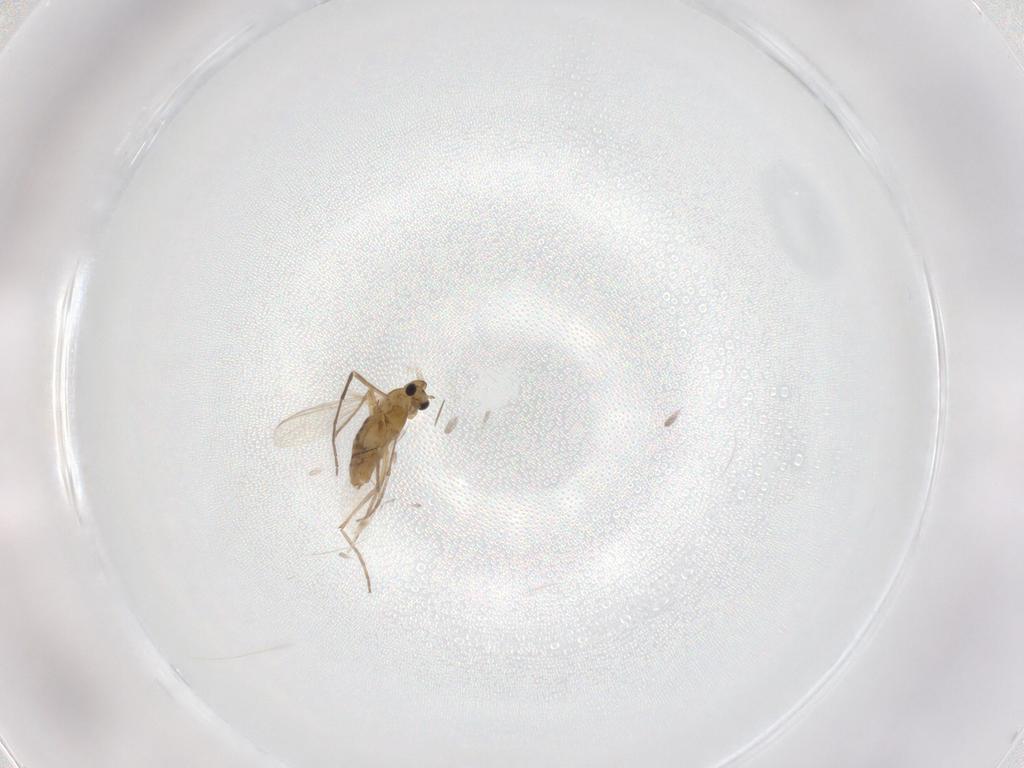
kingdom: Animalia
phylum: Arthropoda
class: Insecta
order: Diptera
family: Chironomidae
